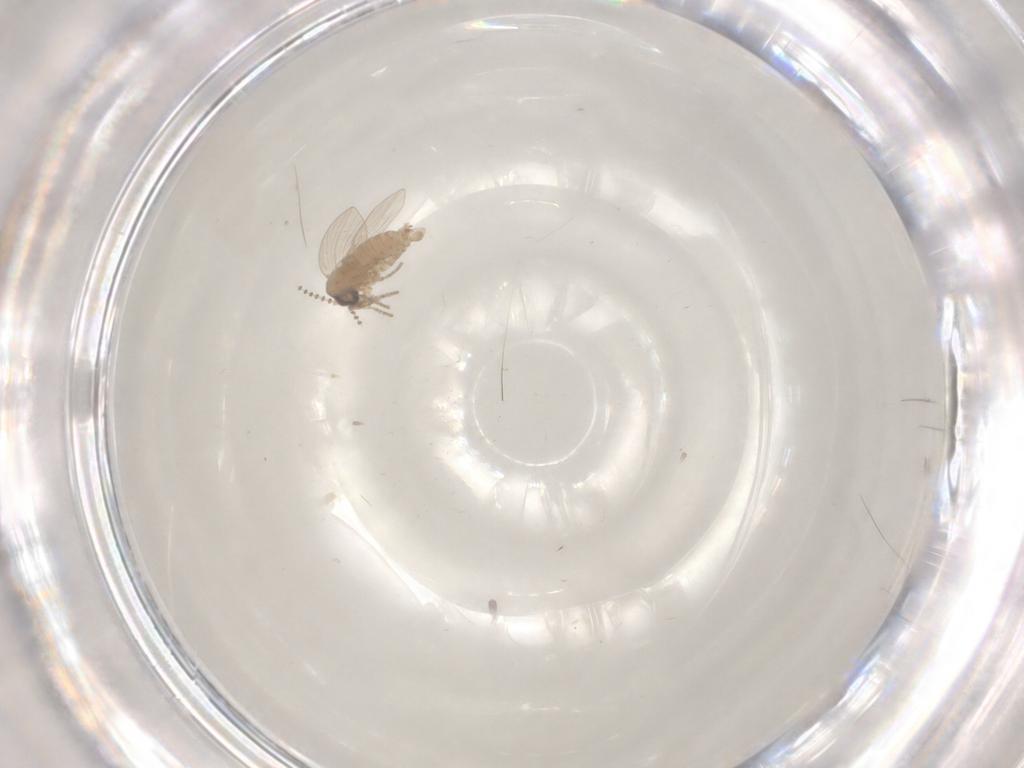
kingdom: Animalia
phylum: Arthropoda
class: Insecta
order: Diptera
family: Psychodidae
